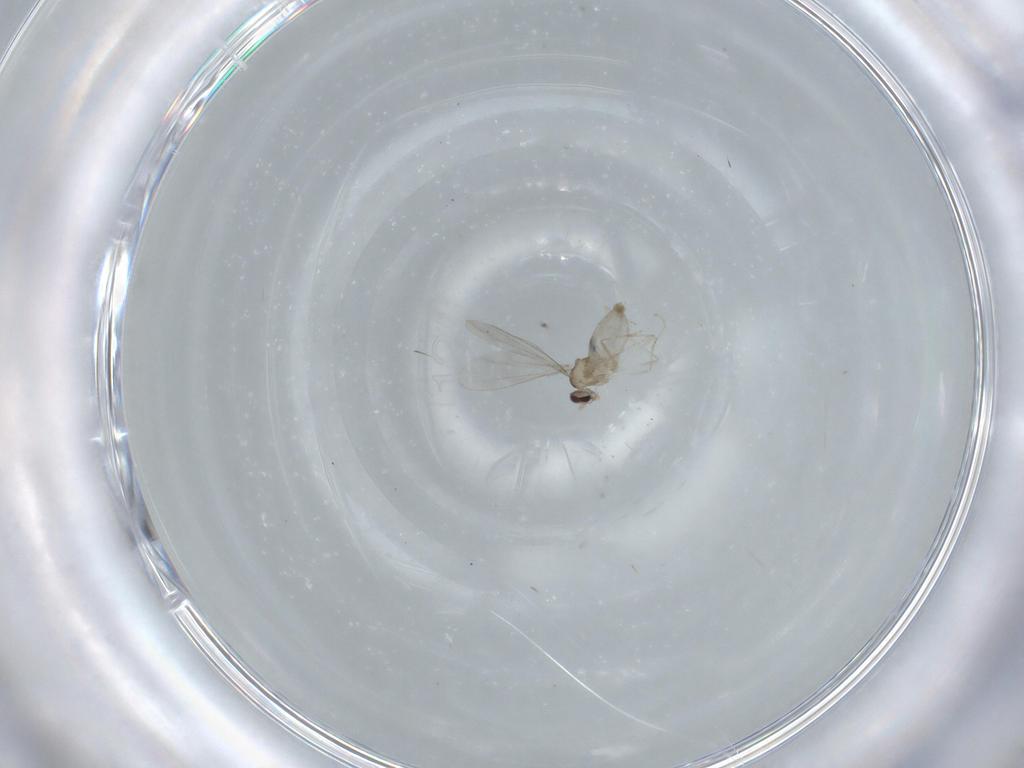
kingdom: Animalia
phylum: Arthropoda
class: Insecta
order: Diptera
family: Cecidomyiidae
